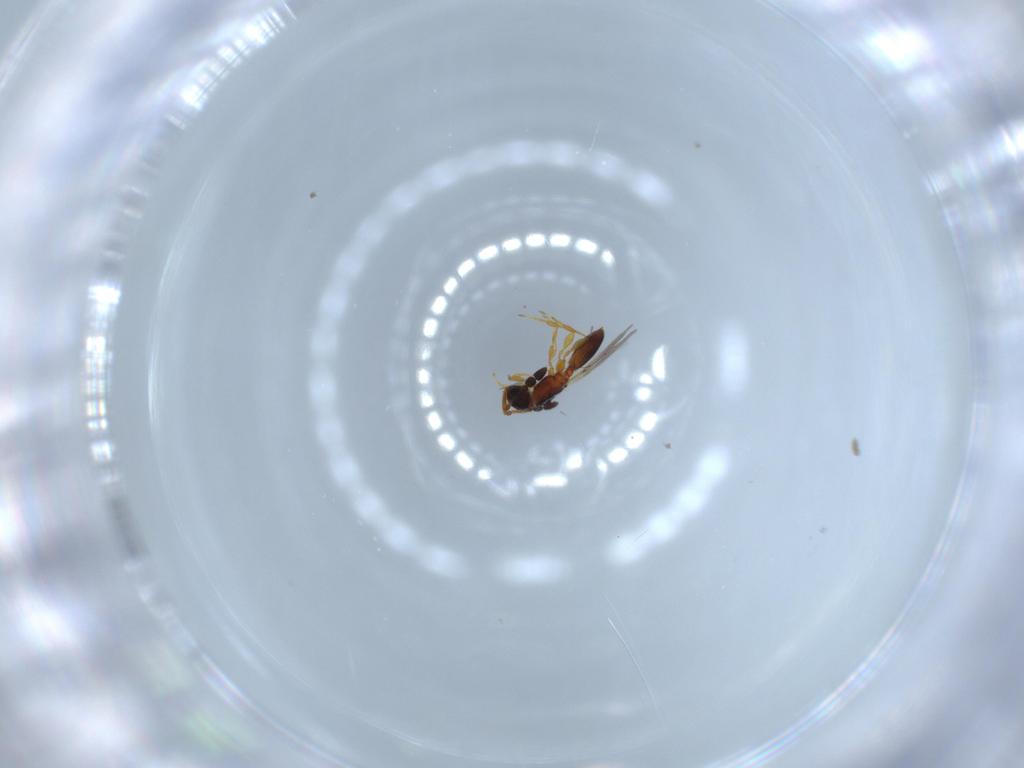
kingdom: Animalia
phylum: Arthropoda
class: Insecta
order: Hymenoptera
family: Diapriidae
